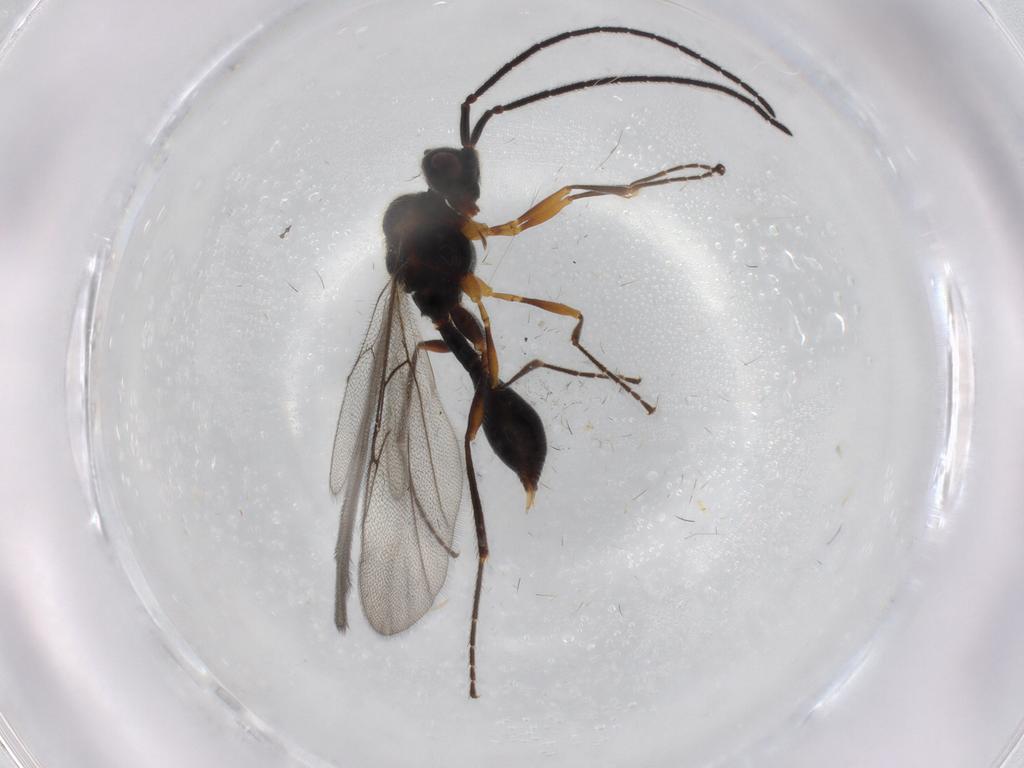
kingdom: Animalia
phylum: Arthropoda
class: Insecta
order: Hymenoptera
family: Diapriidae
